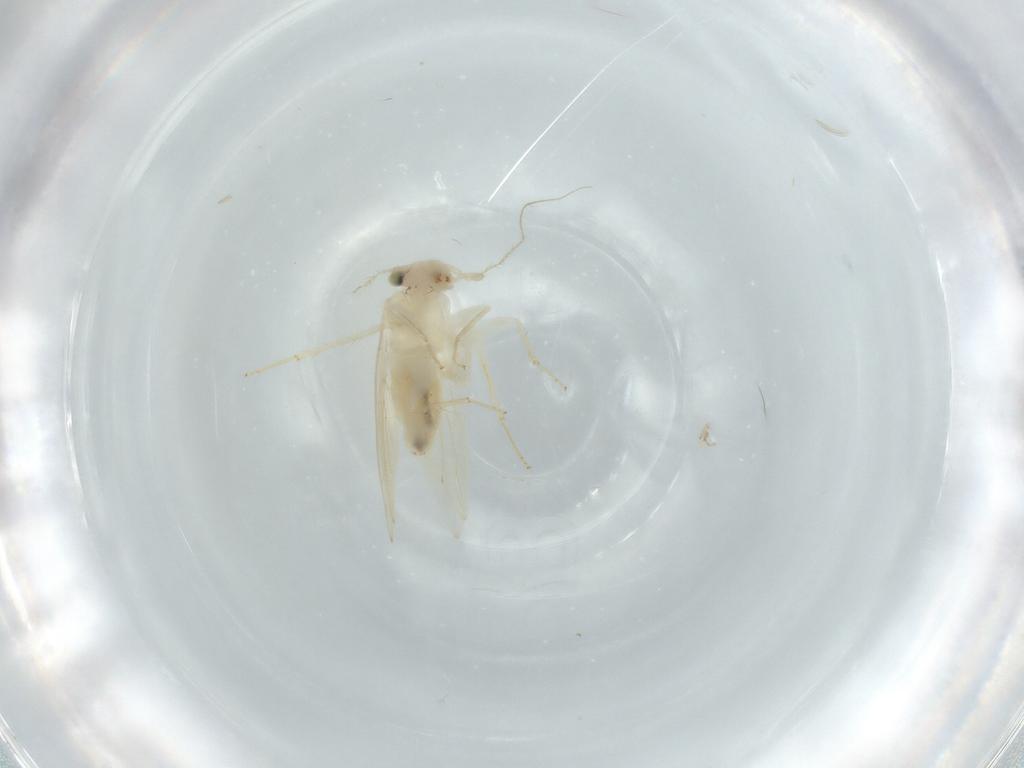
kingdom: Animalia
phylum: Arthropoda
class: Insecta
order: Psocodea
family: Lepidopsocidae
